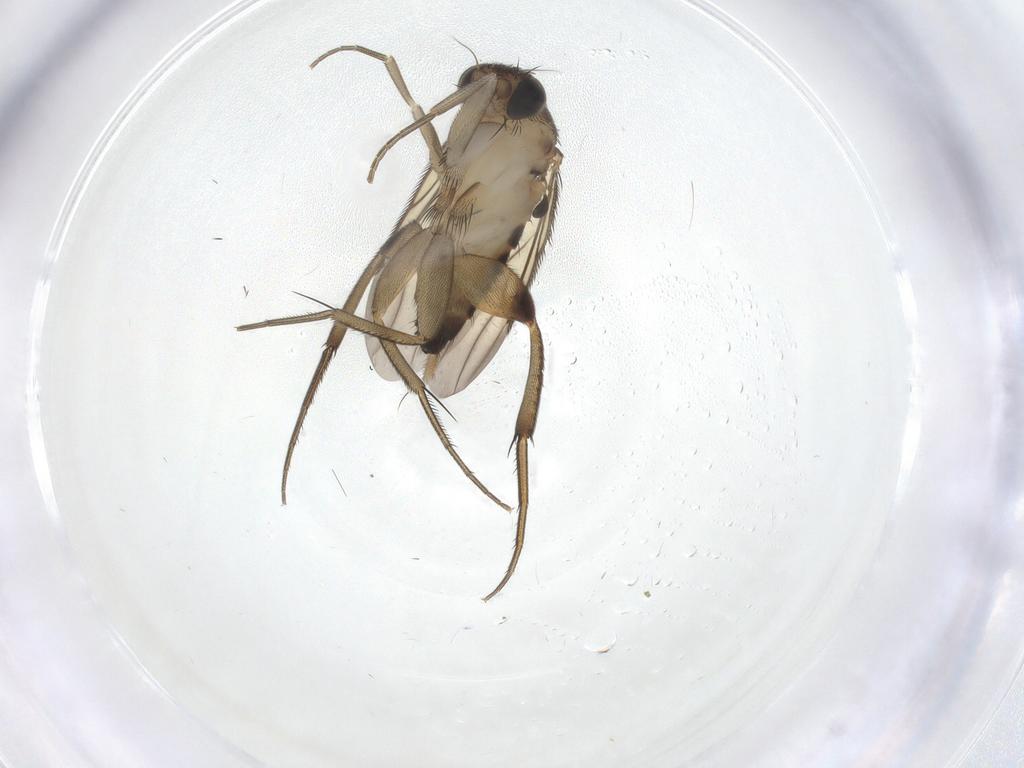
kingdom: Animalia
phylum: Arthropoda
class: Insecta
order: Diptera
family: Phoridae
